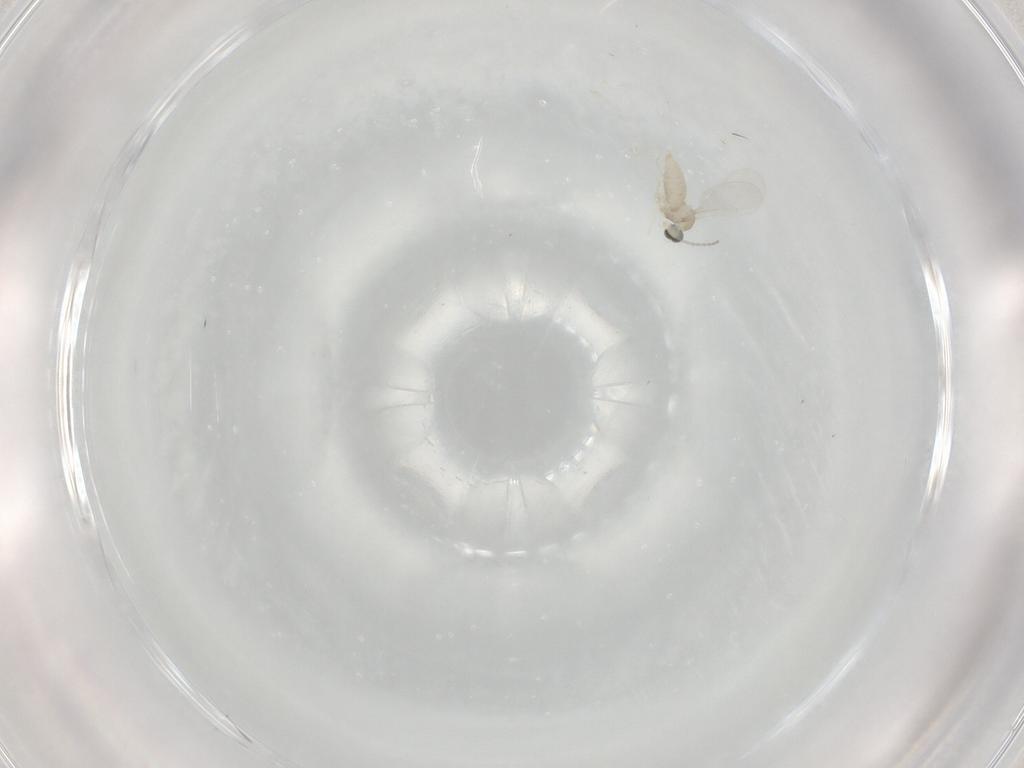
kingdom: Animalia
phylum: Arthropoda
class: Insecta
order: Diptera
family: Cecidomyiidae
